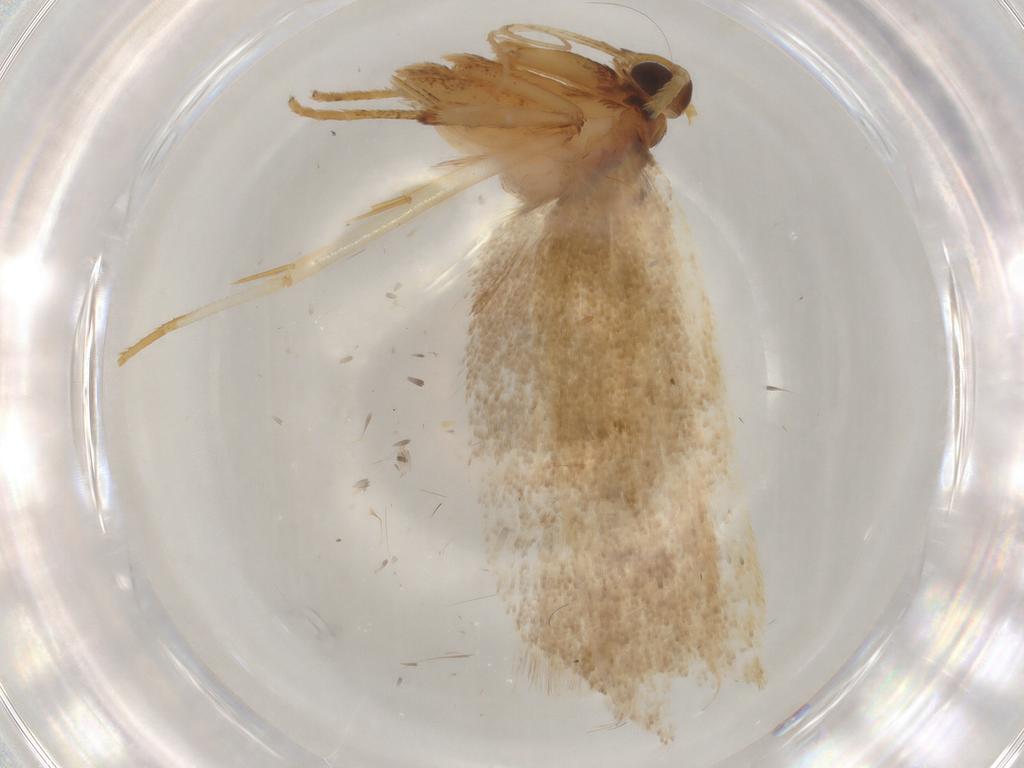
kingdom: Animalia
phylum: Arthropoda
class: Insecta
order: Lepidoptera
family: Lecithoceridae
